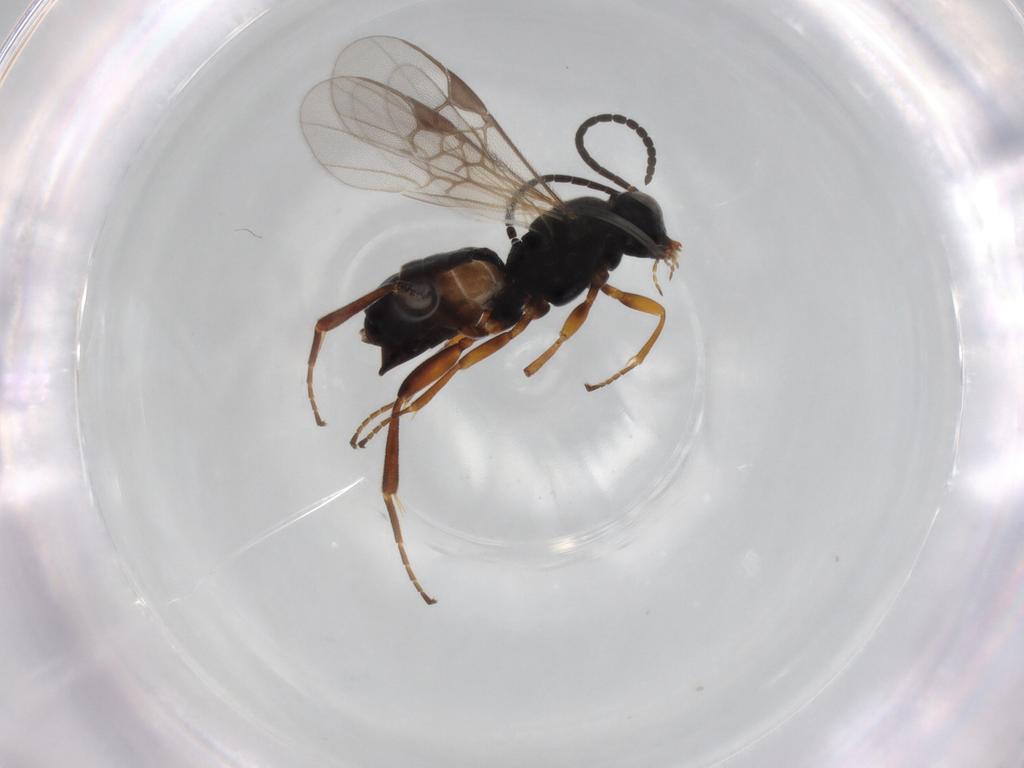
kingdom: Animalia
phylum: Arthropoda
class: Insecta
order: Hymenoptera
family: Braconidae
